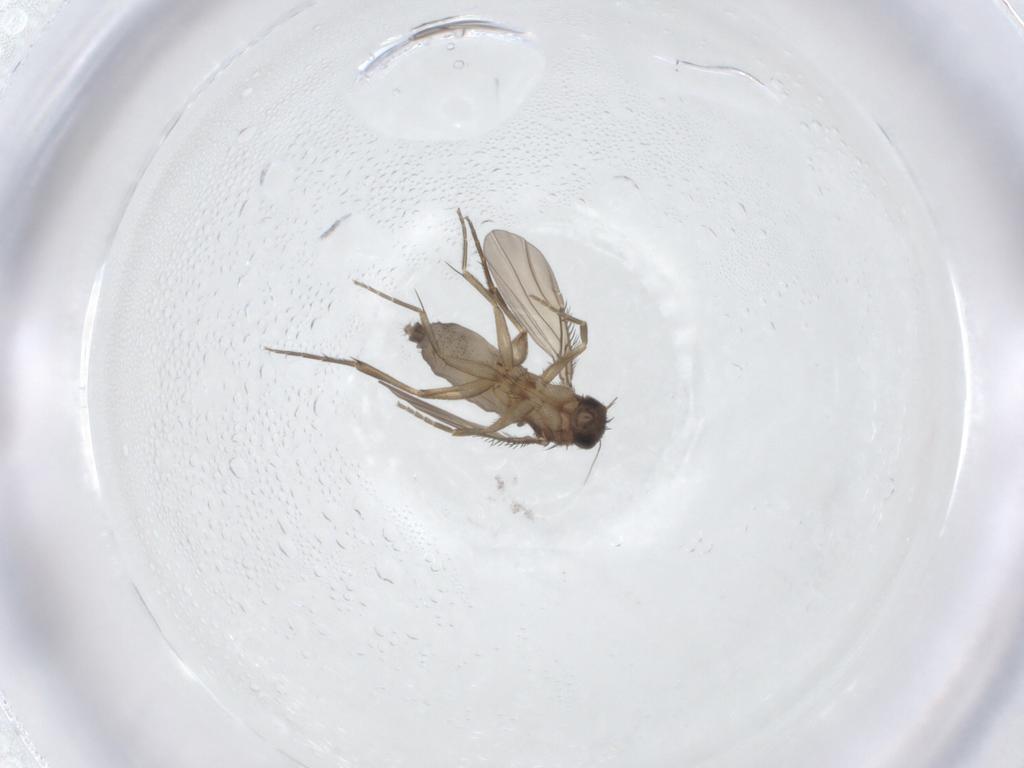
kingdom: Animalia
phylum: Arthropoda
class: Insecta
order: Diptera
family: Phoridae
